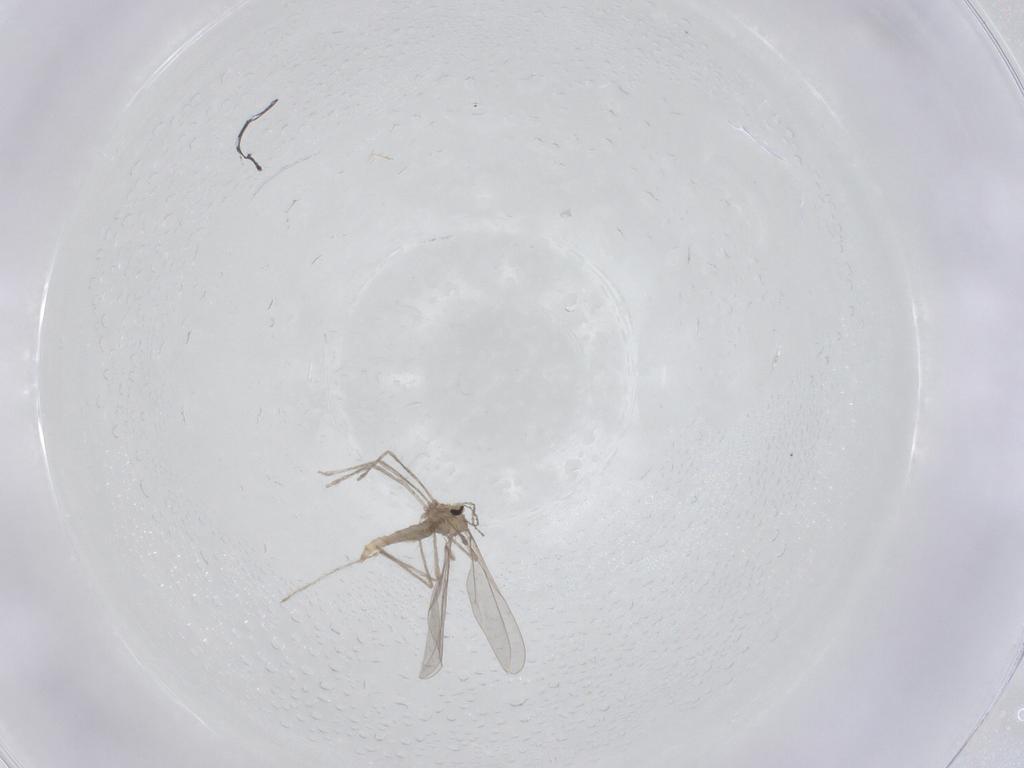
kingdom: Animalia
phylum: Arthropoda
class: Insecta
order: Diptera
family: Cecidomyiidae
